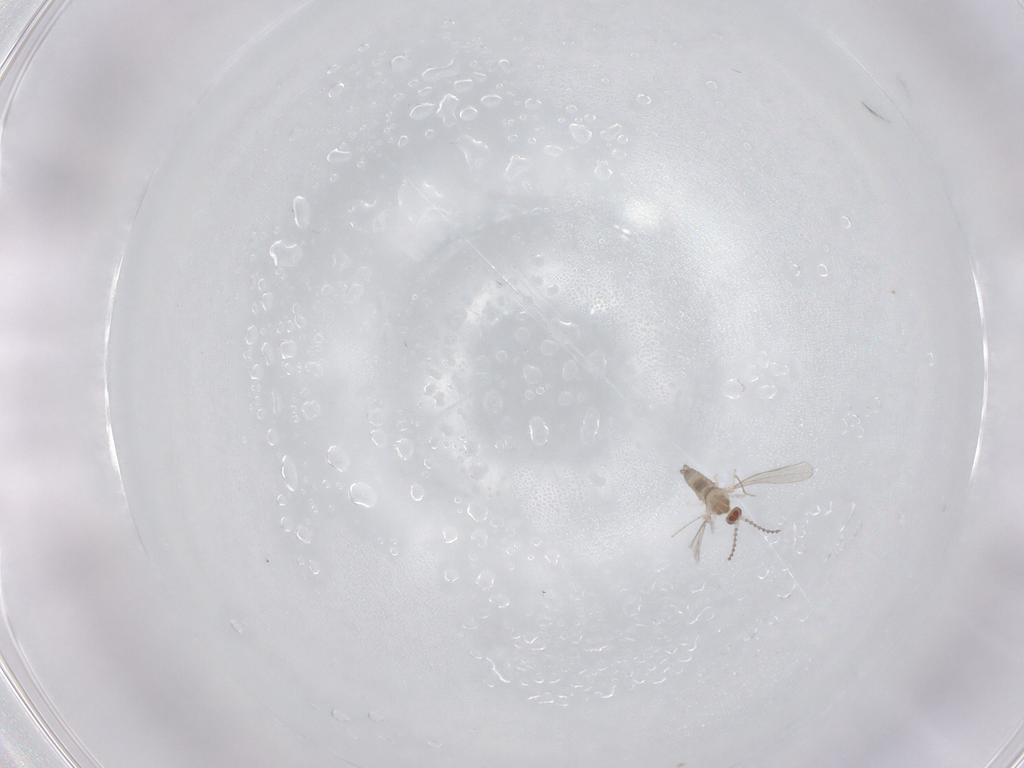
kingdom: Animalia
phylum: Arthropoda
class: Insecta
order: Diptera
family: Cecidomyiidae
